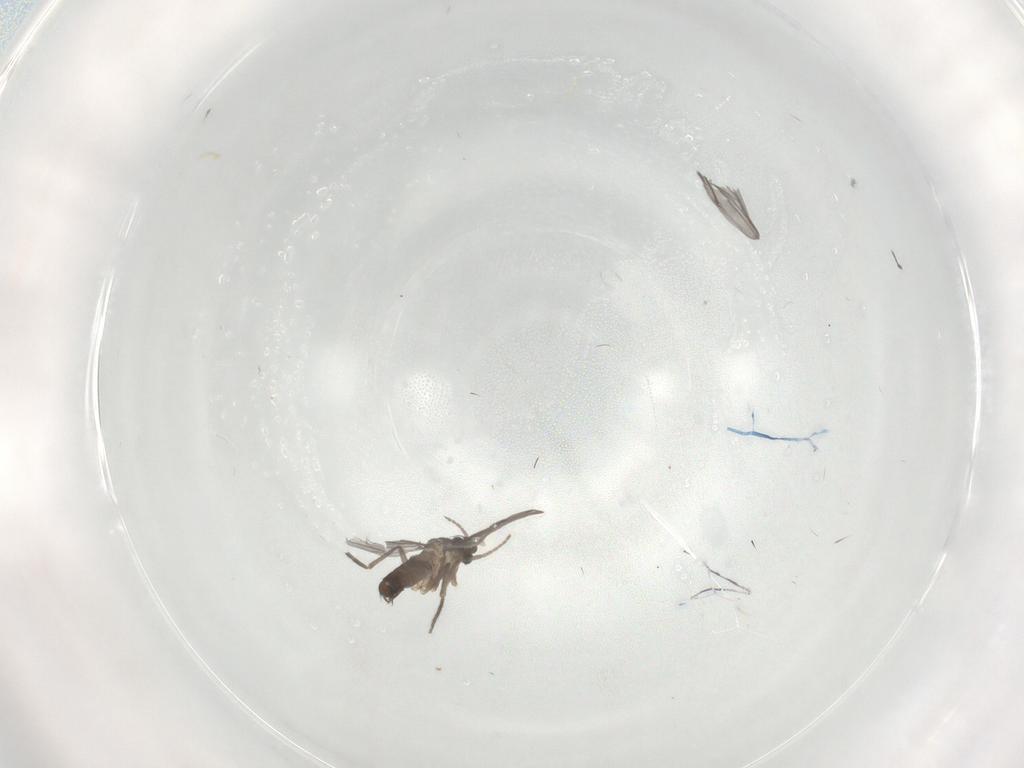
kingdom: Animalia
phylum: Arthropoda
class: Insecta
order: Diptera
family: Phoridae
